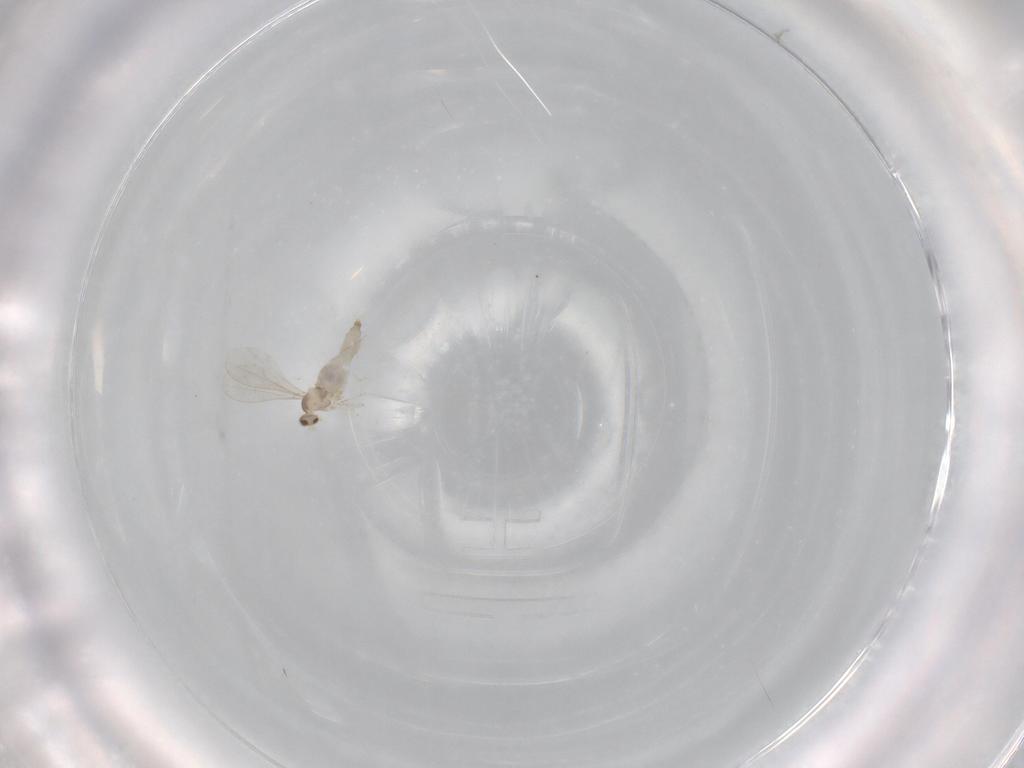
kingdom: Animalia
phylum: Arthropoda
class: Insecta
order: Diptera
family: Cecidomyiidae
